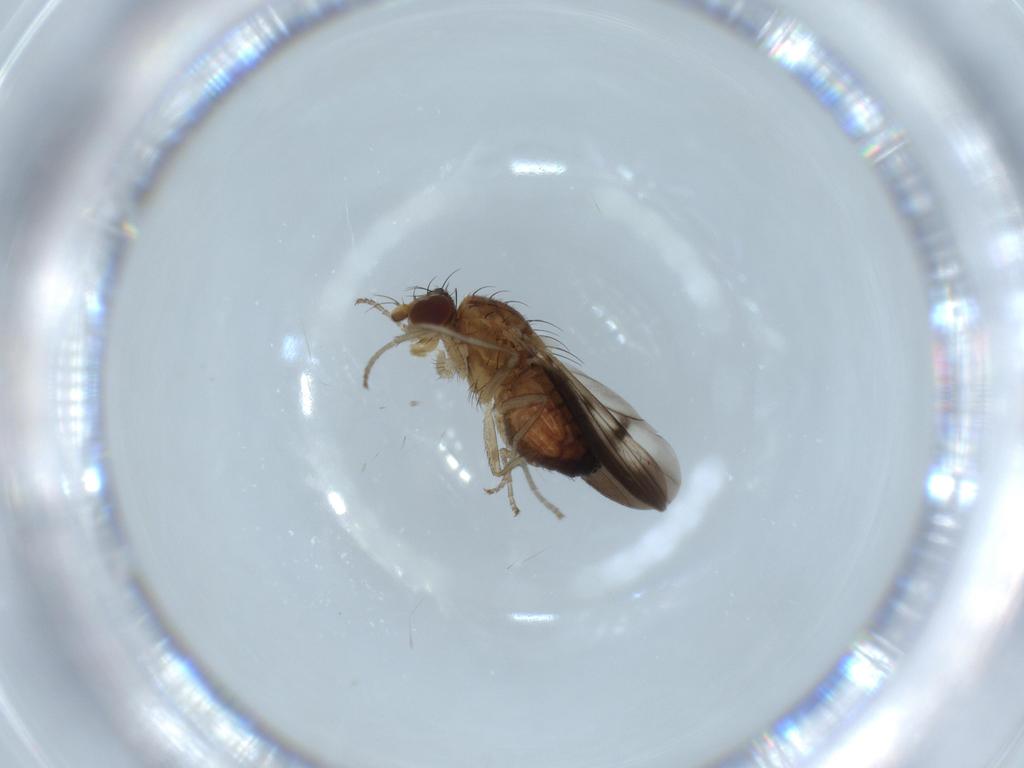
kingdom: Animalia
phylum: Arthropoda
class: Insecta
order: Diptera
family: Heleomyzidae
